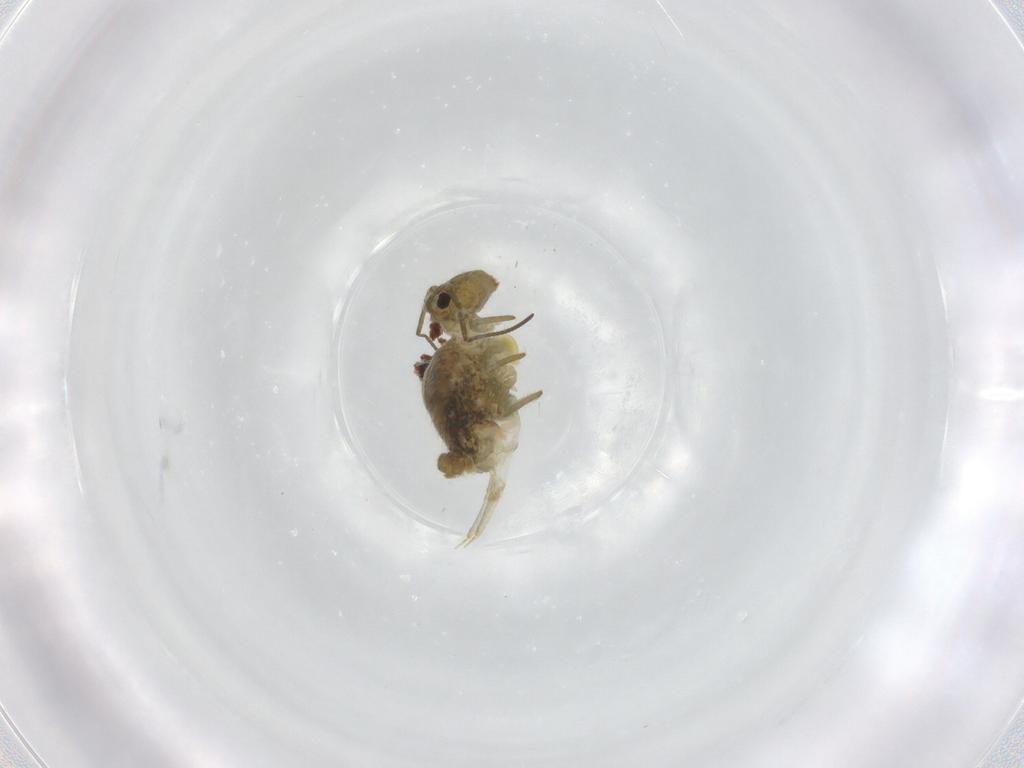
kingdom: Animalia
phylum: Arthropoda
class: Collembola
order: Symphypleona
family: Sminthuridae
